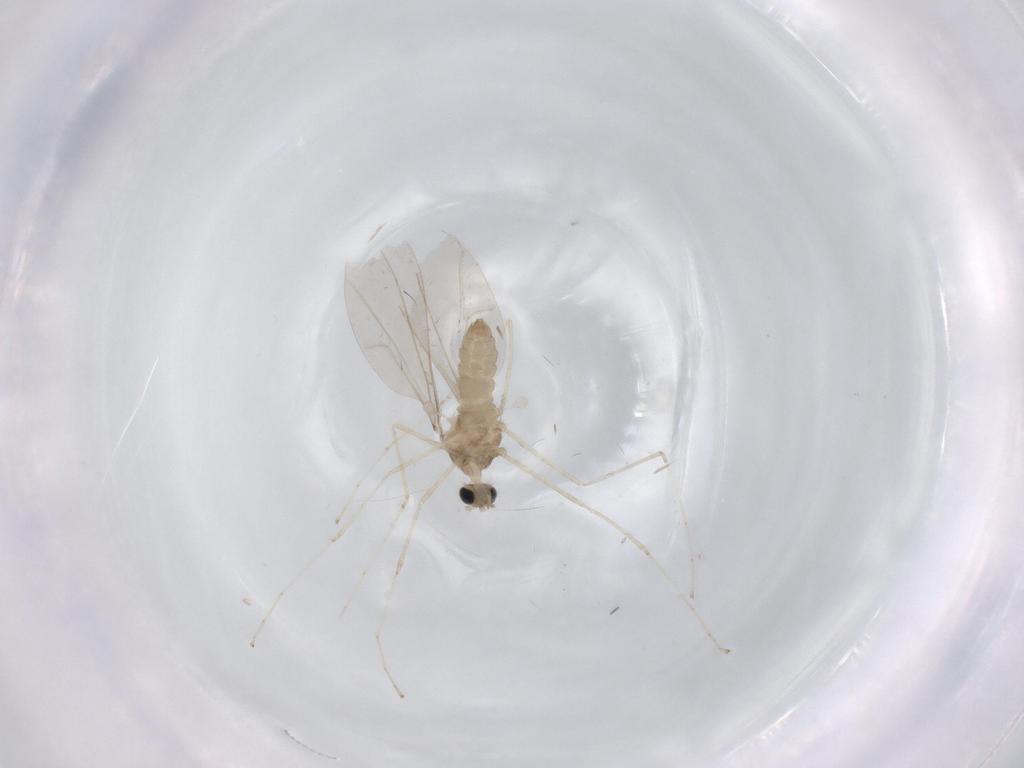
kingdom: Animalia
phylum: Arthropoda
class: Insecta
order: Diptera
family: Cecidomyiidae
